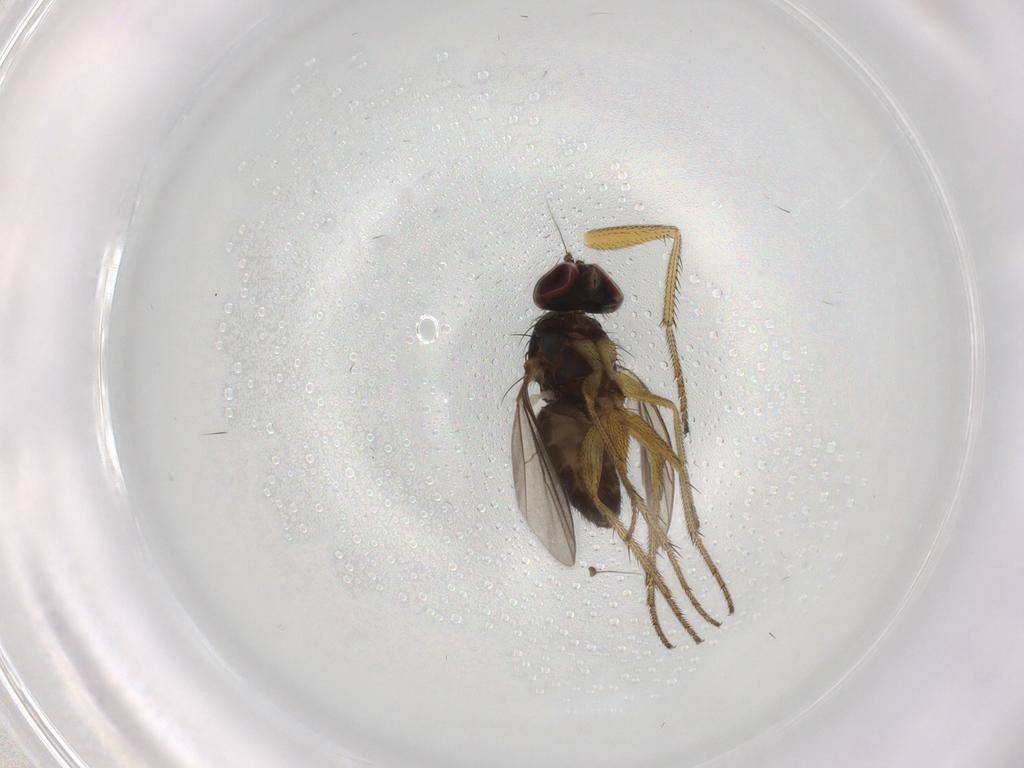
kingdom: Animalia
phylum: Arthropoda
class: Insecta
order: Diptera
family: Dolichopodidae
